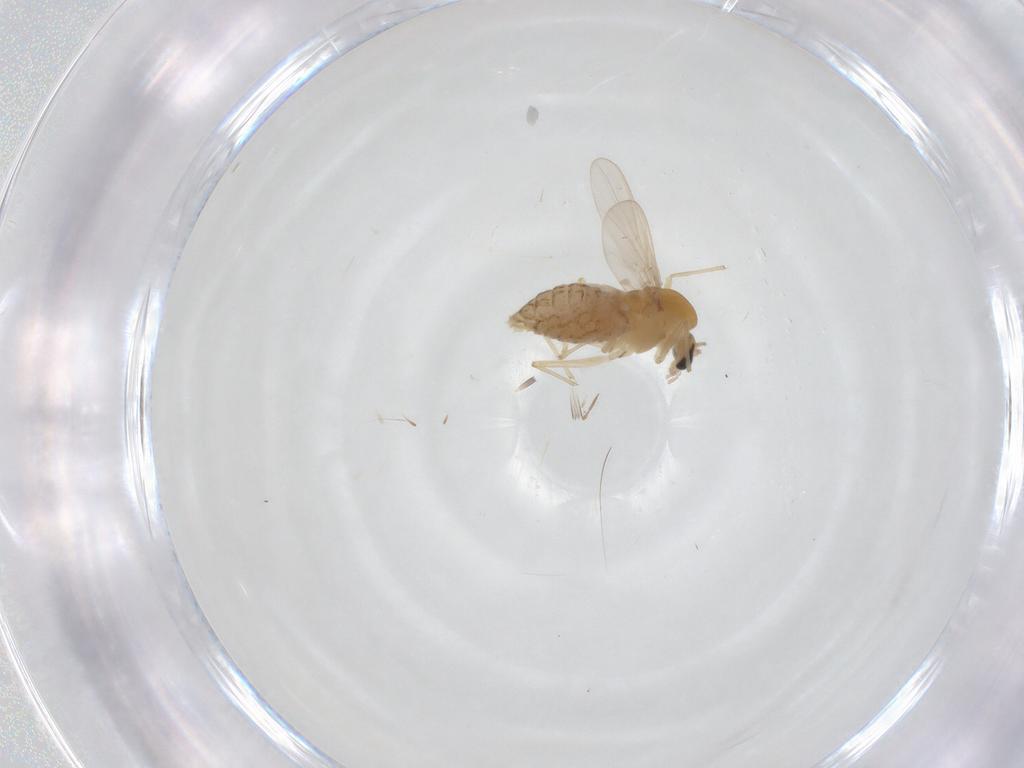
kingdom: Animalia
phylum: Arthropoda
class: Insecta
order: Diptera
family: Chironomidae
